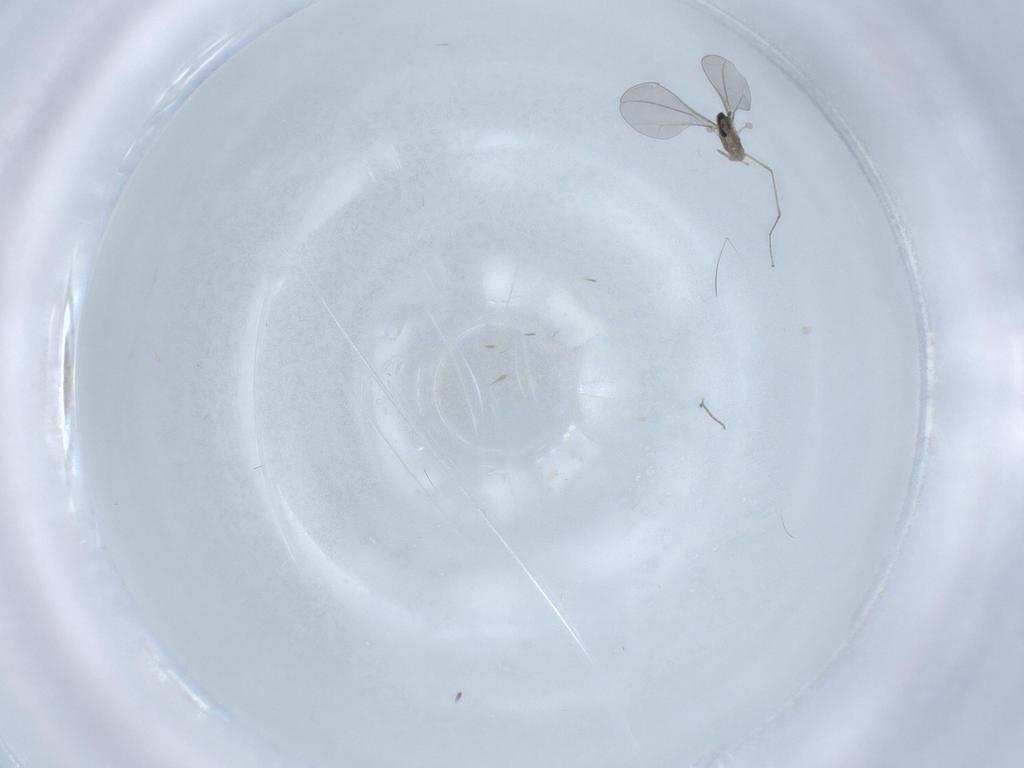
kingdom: Animalia
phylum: Arthropoda
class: Insecta
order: Diptera
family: Cecidomyiidae
